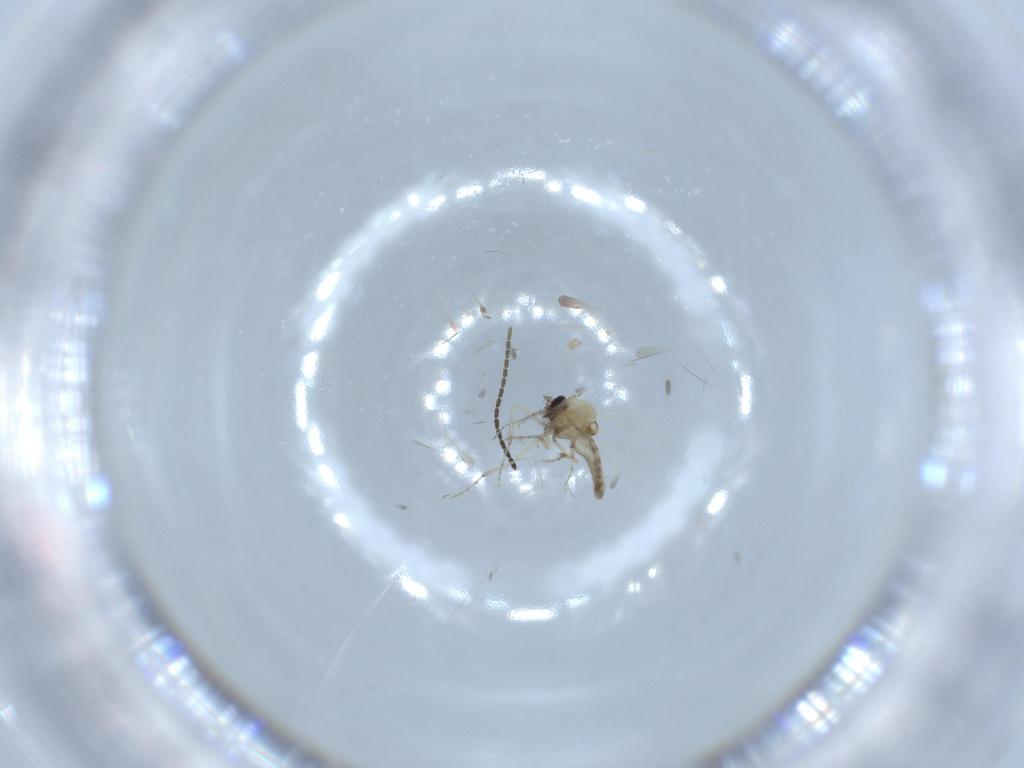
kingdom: Animalia
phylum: Arthropoda
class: Insecta
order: Diptera
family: Sciaridae
